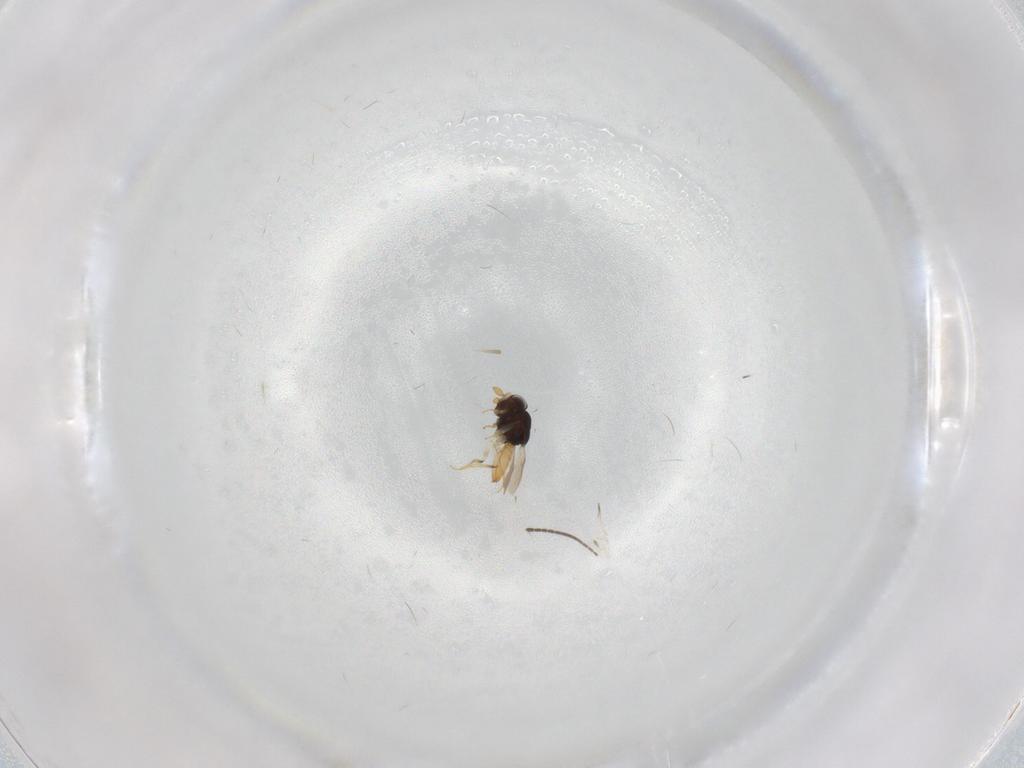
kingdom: Animalia
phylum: Arthropoda
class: Insecta
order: Hymenoptera
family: Scelionidae
